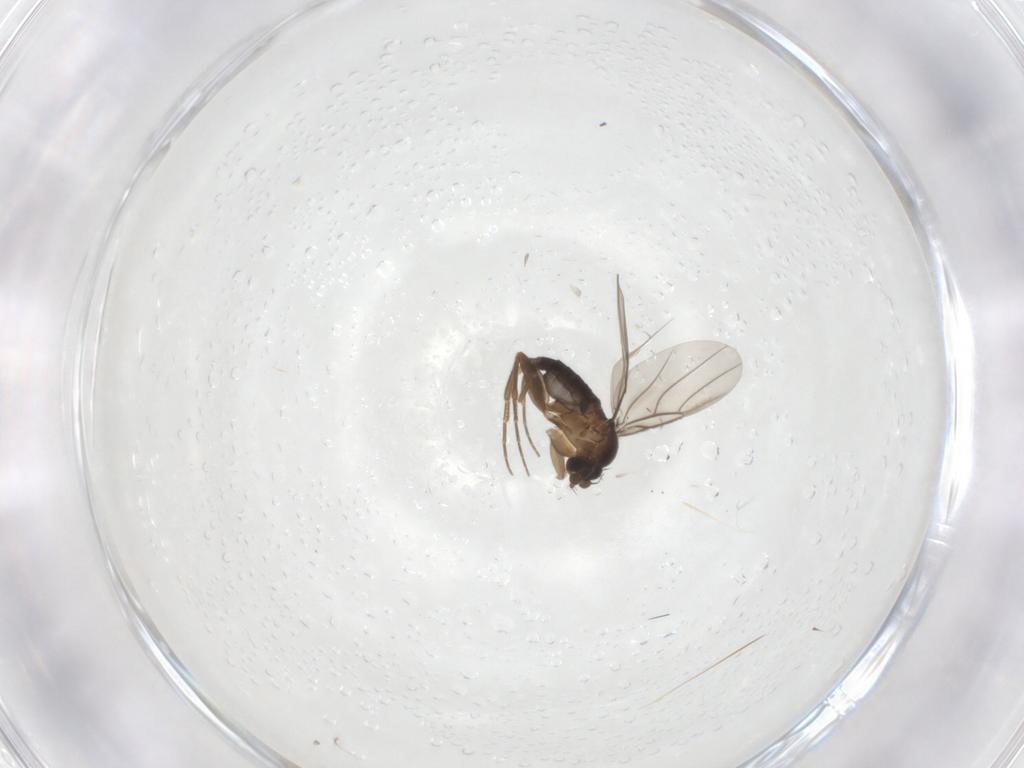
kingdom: Animalia
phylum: Arthropoda
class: Insecta
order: Diptera
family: Phoridae
